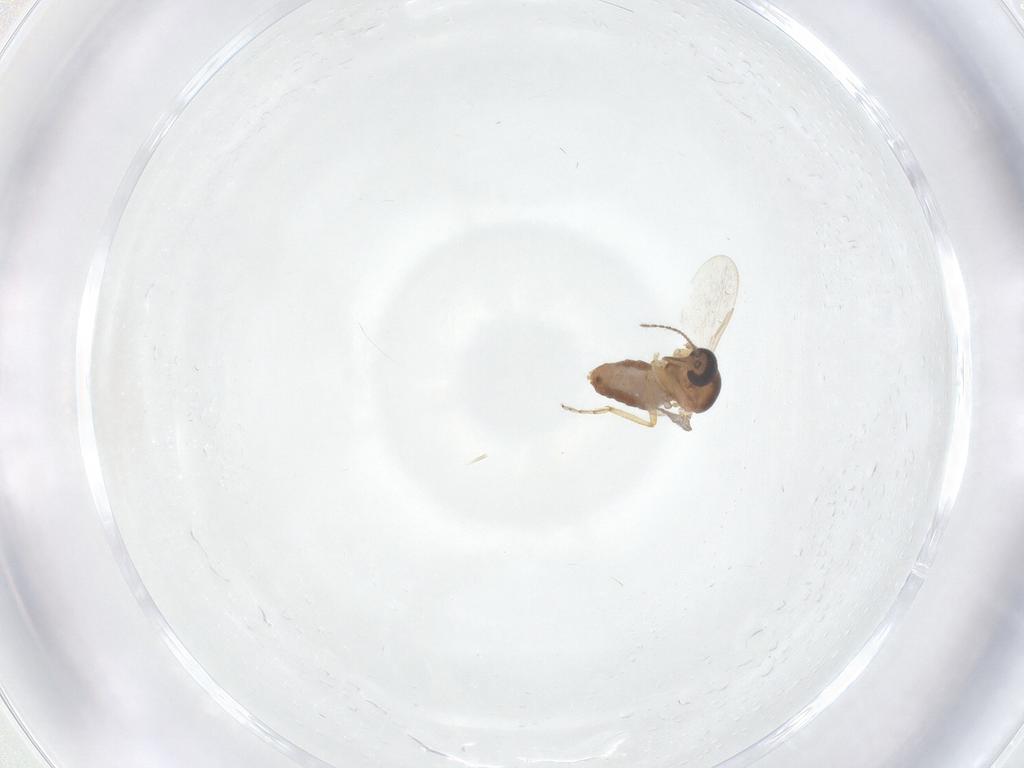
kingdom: Animalia
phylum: Arthropoda
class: Insecta
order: Diptera
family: Ceratopogonidae
